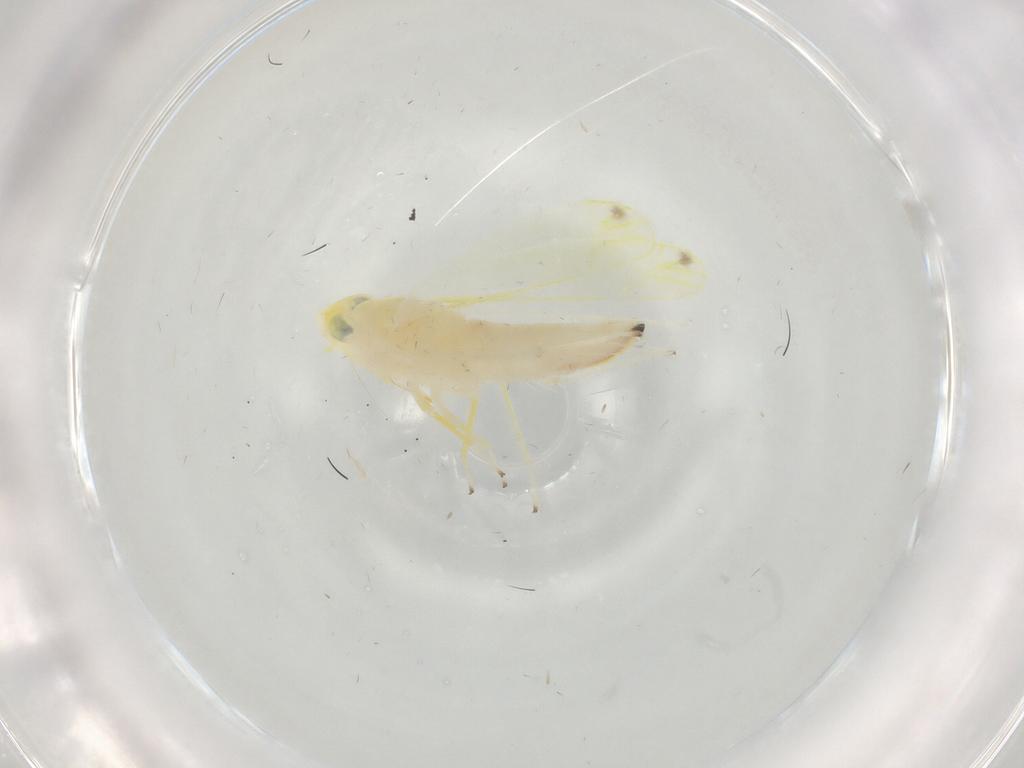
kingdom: Animalia
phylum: Arthropoda
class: Insecta
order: Hemiptera
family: Cicadellidae
